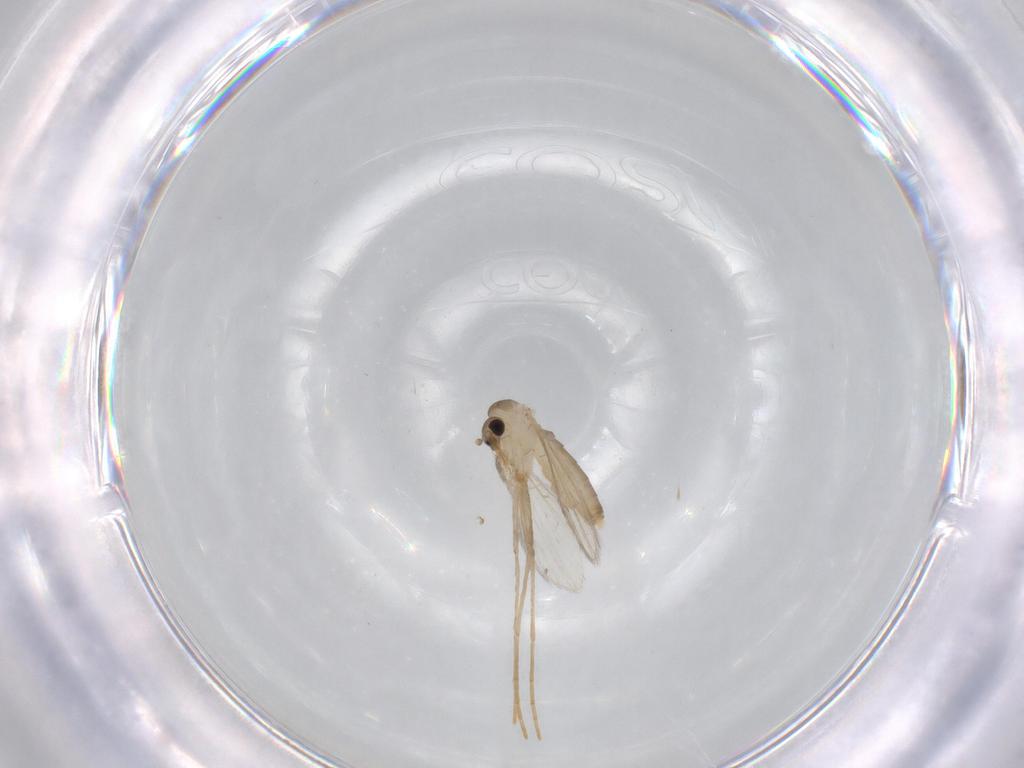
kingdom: Animalia
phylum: Arthropoda
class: Insecta
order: Diptera
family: Psychodidae
